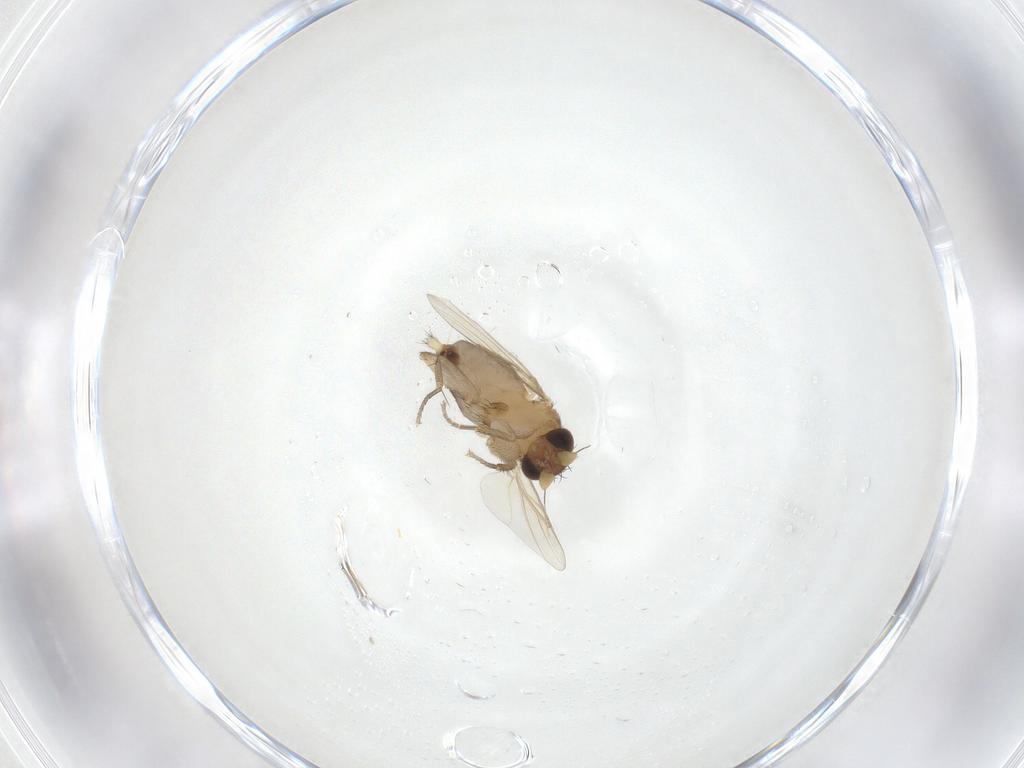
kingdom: Animalia
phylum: Arthropoda
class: Insecta
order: Diptera
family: Phoridae
